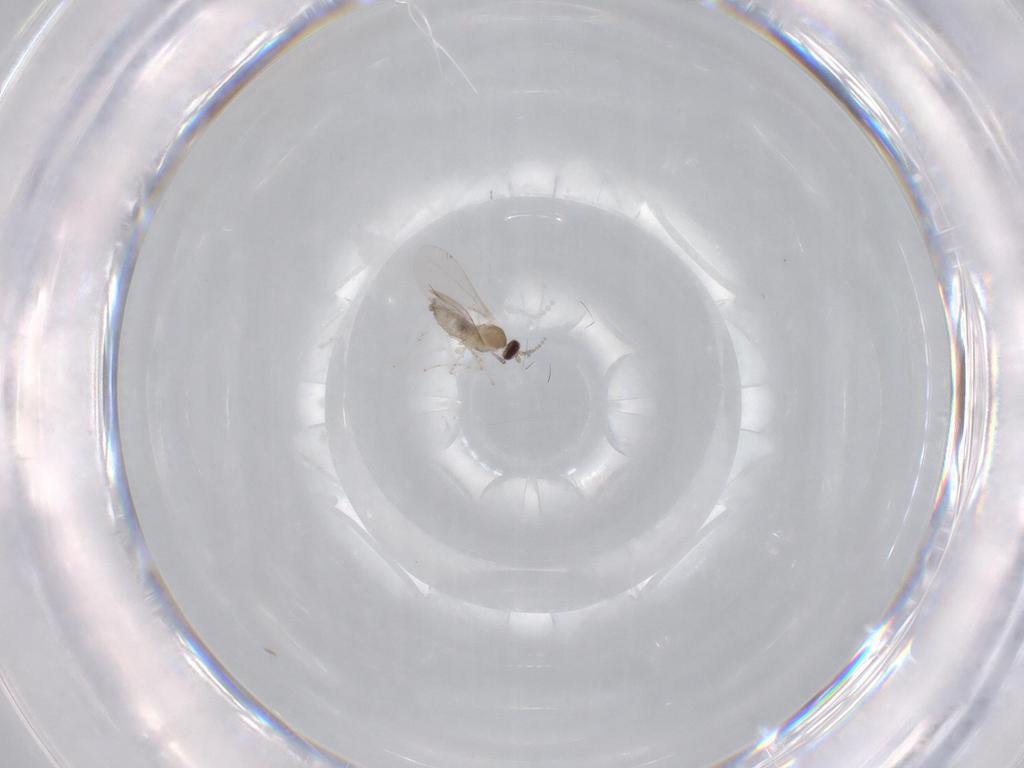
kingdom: Animalia
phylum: Arthropoda
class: Insecta
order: Diptera
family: Cecidomyiidae
